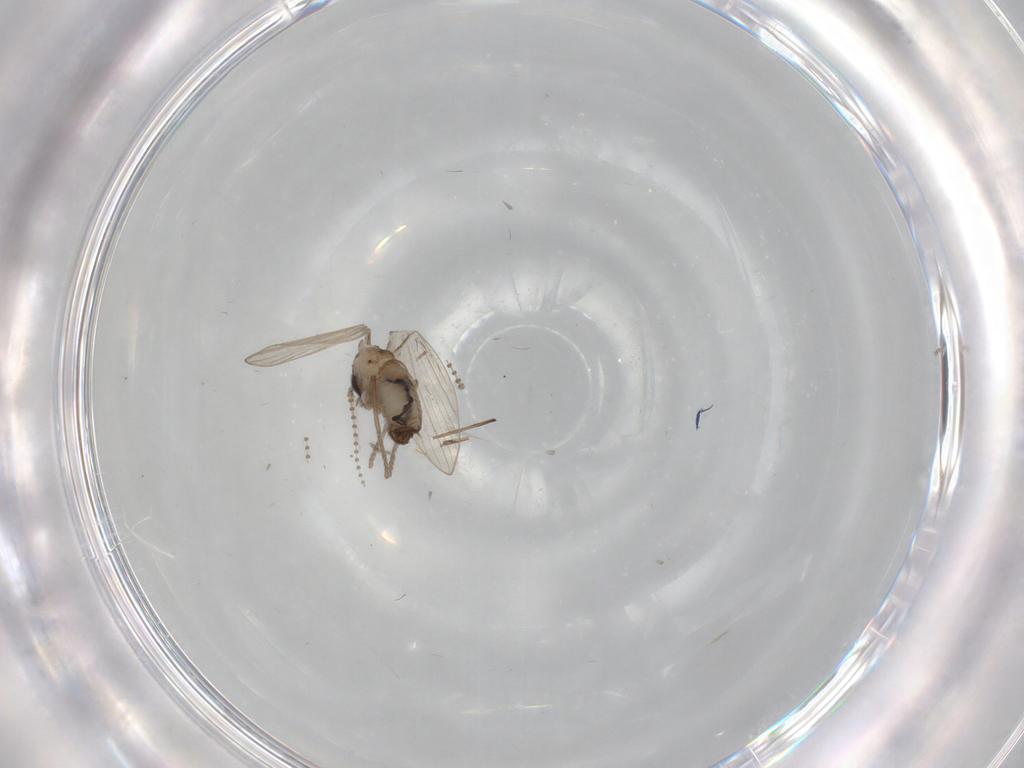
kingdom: Animalia
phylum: Arthropoda
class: Insecta
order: Diptera
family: Psychodidae
